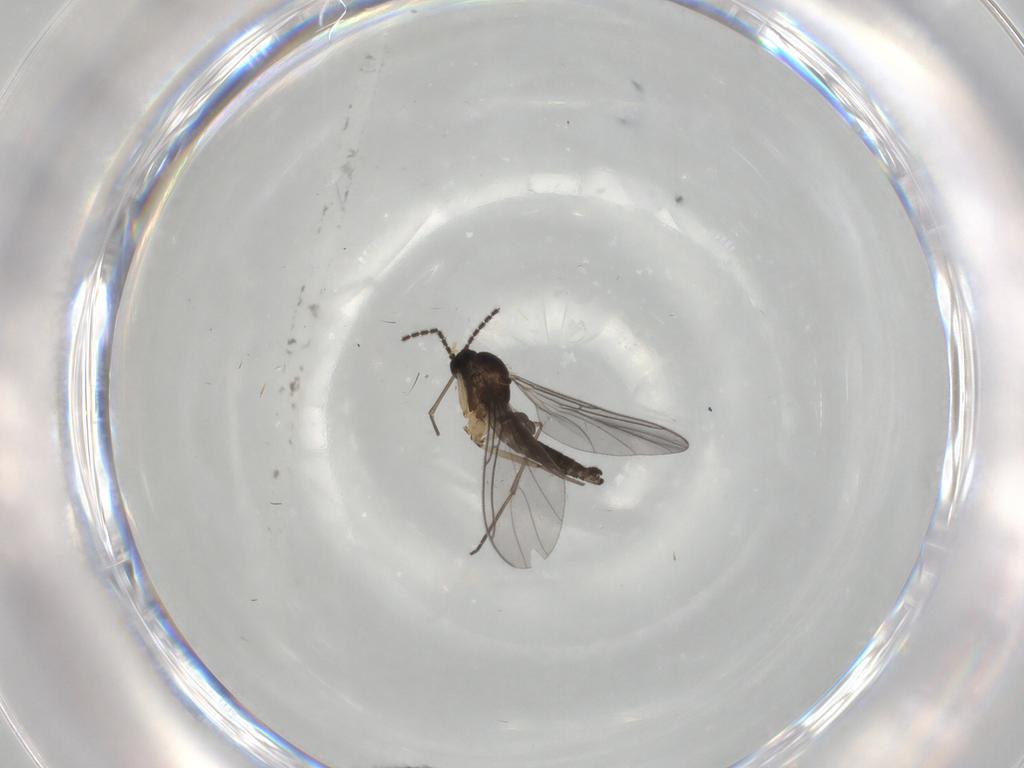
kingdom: Animalia
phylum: Arthropoda
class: Insecta
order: Diptera
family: Sciaridae
